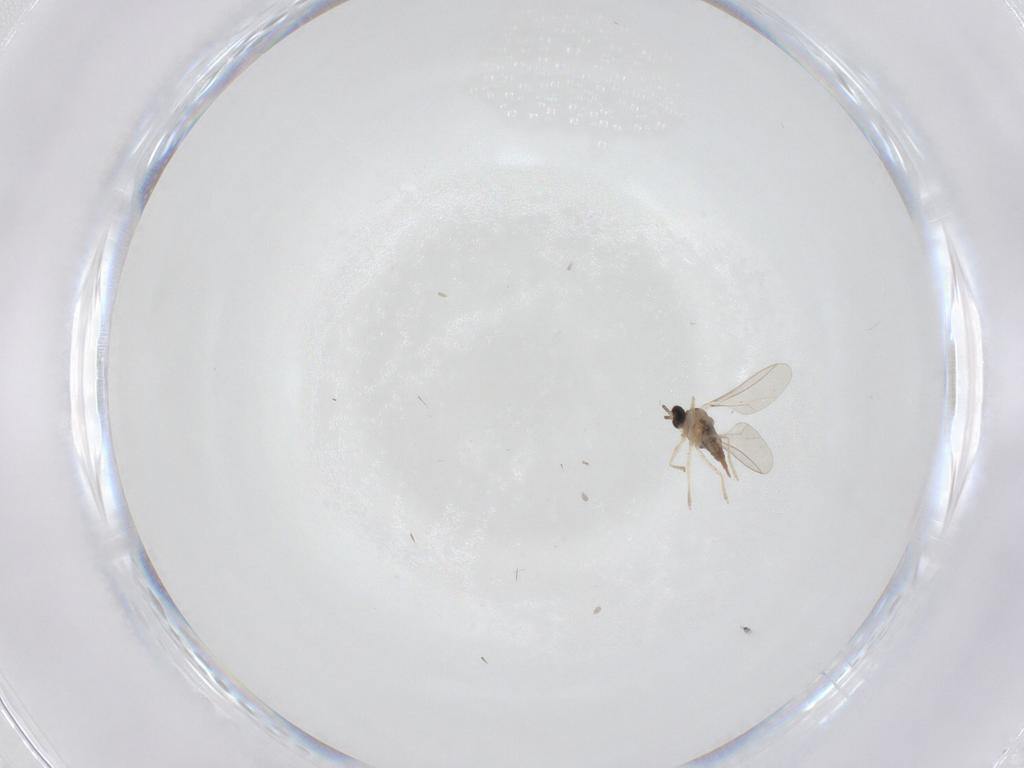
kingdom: Animalia
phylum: Arthropoda
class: Insecta
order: Diptera
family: Cecidomyiidae
